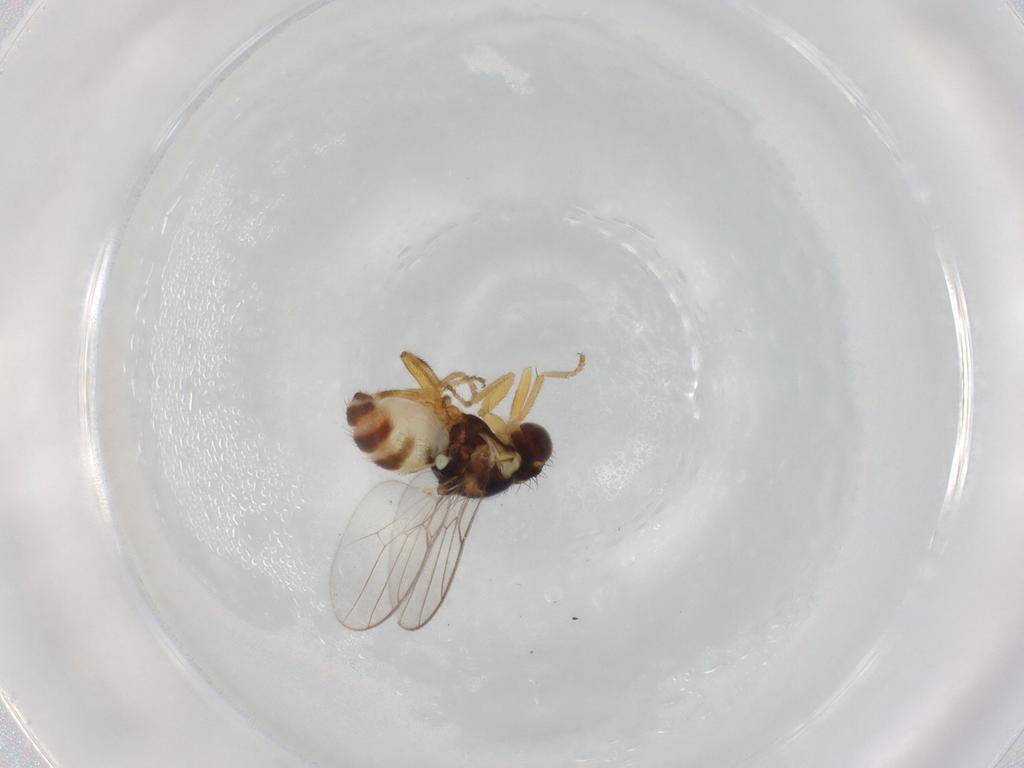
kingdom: Animalia
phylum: Arthropoda
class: Insecta
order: Diptera
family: Chloropidae
